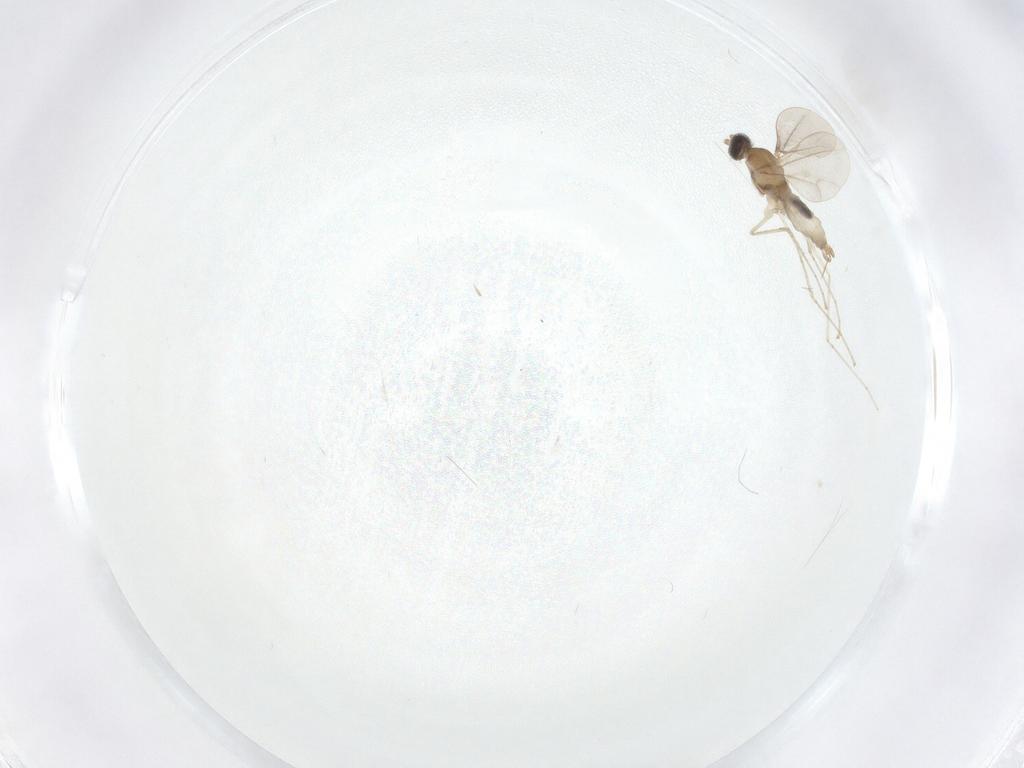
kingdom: Animalia
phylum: Arthropoda
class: Insecta
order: Diptera
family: Cecidomyiidae
